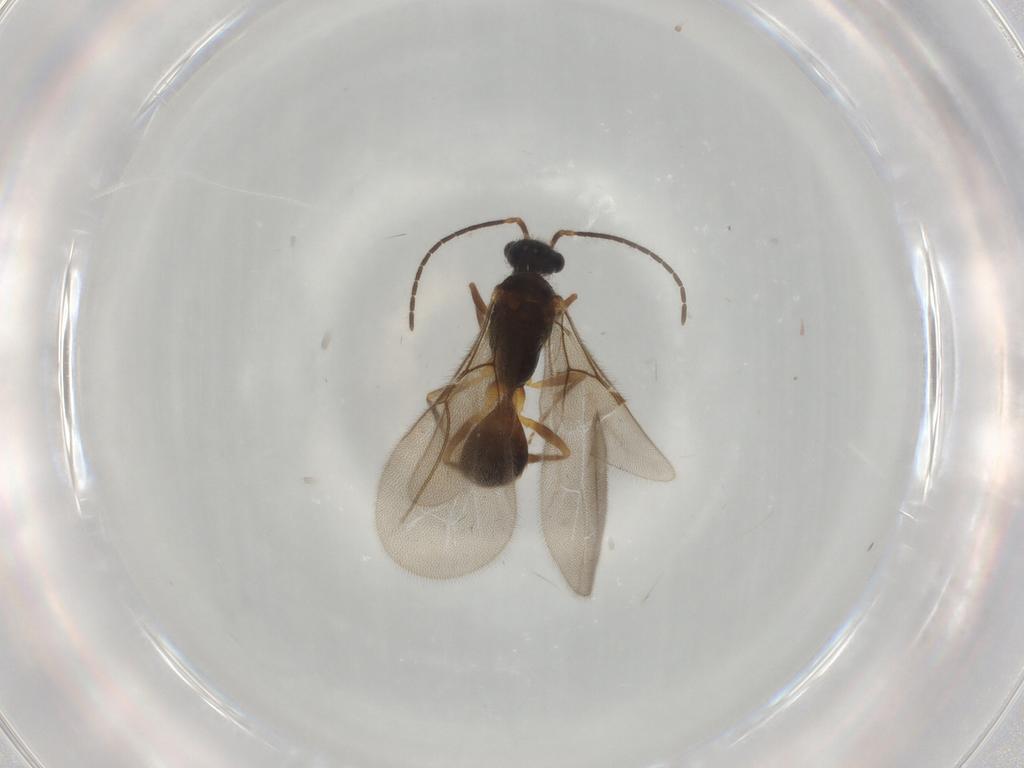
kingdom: Animalia
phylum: Arthropoda
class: Insecta
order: Hymenoptera
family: Bethylidae
